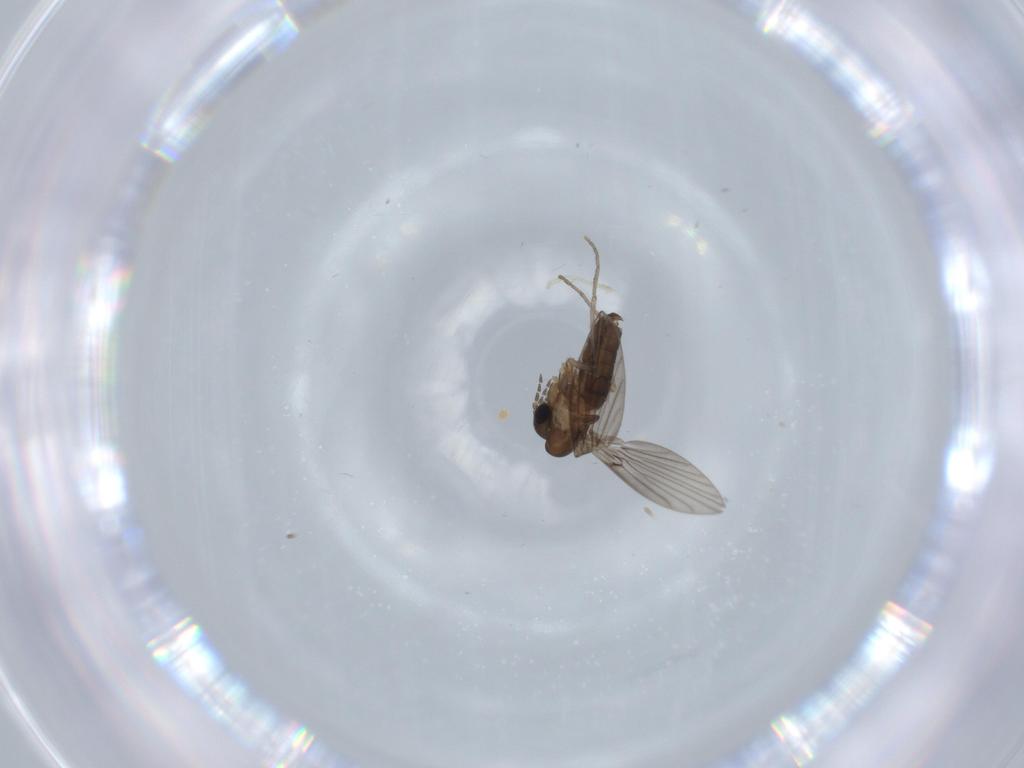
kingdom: Animalia
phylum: Arthropoda
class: Insecta
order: Diptera
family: Psychodidae
